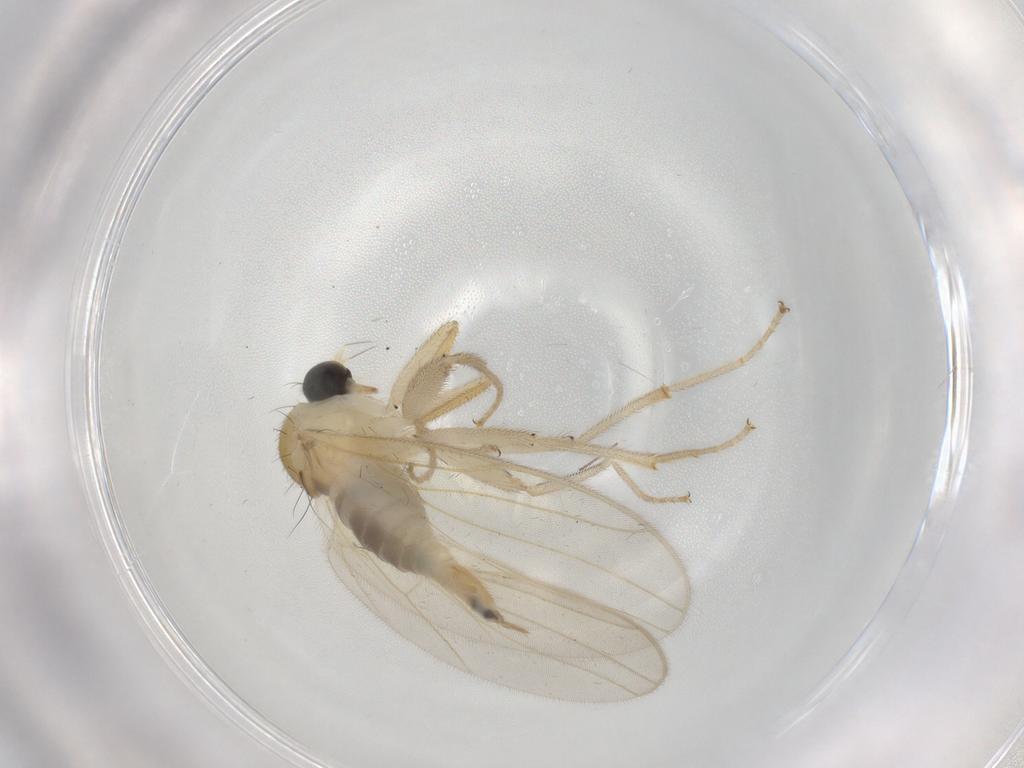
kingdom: Animalia
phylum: Arthropoda
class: Insecta
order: Diptera
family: Hybotidae
